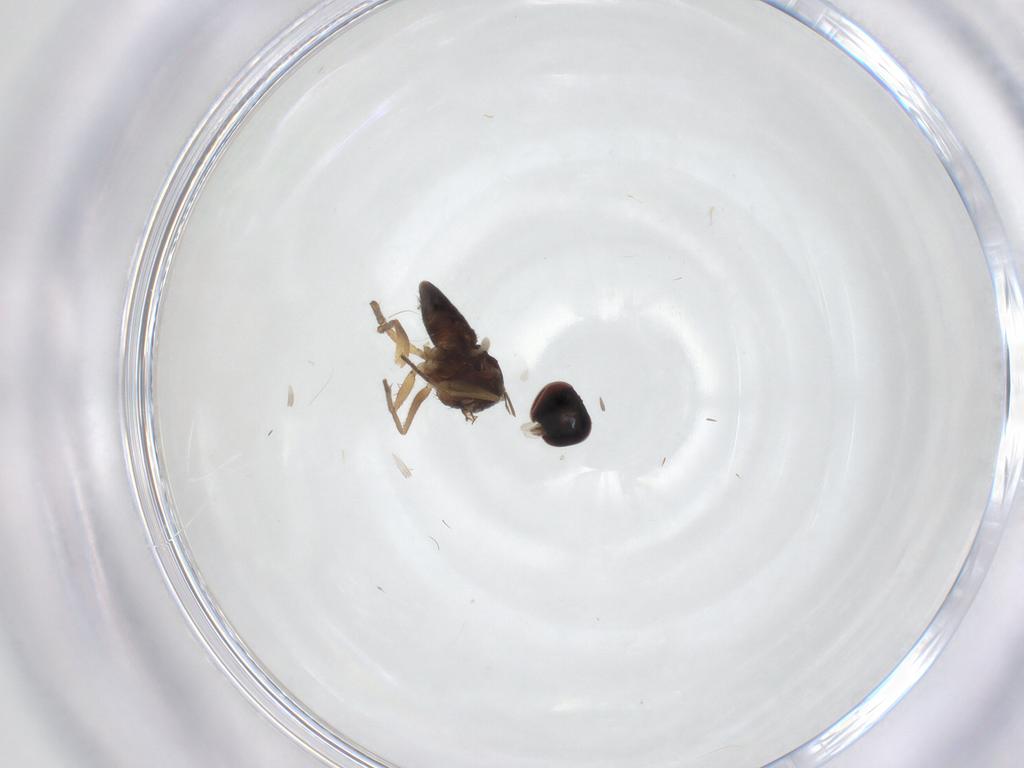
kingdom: Animalia
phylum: Arthropoda
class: Insecta
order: Diptera
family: Dolichopodidae
